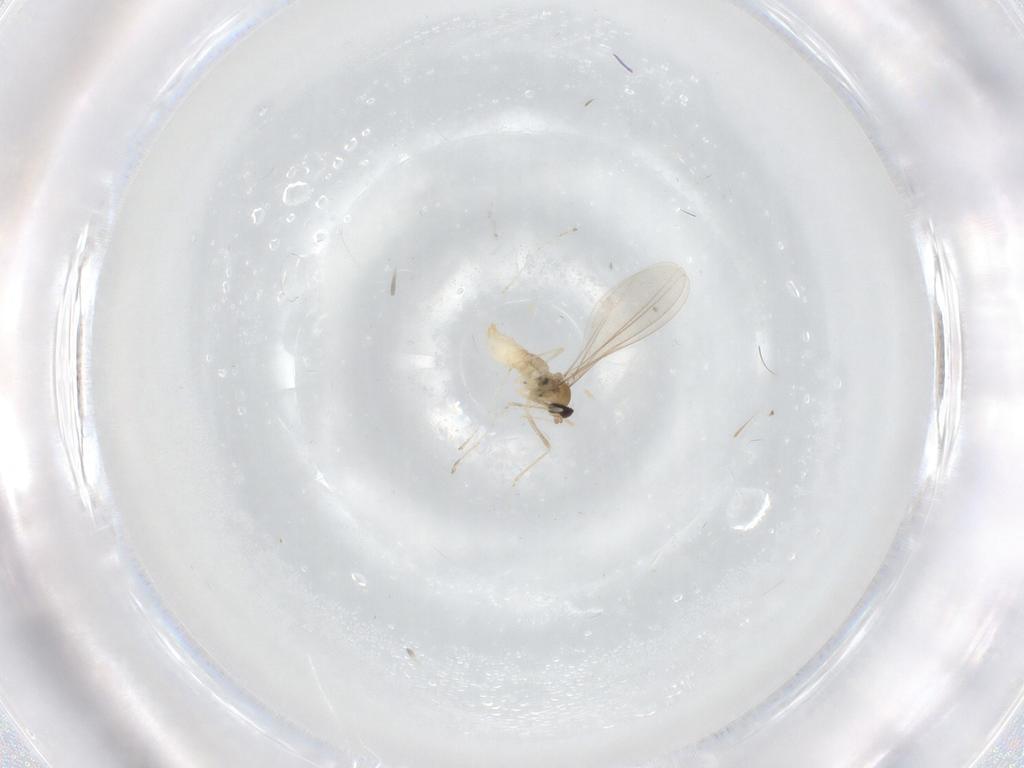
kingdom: Animalia
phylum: Arthropoda
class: Insecta
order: Diptera
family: Cecidomyiidae
